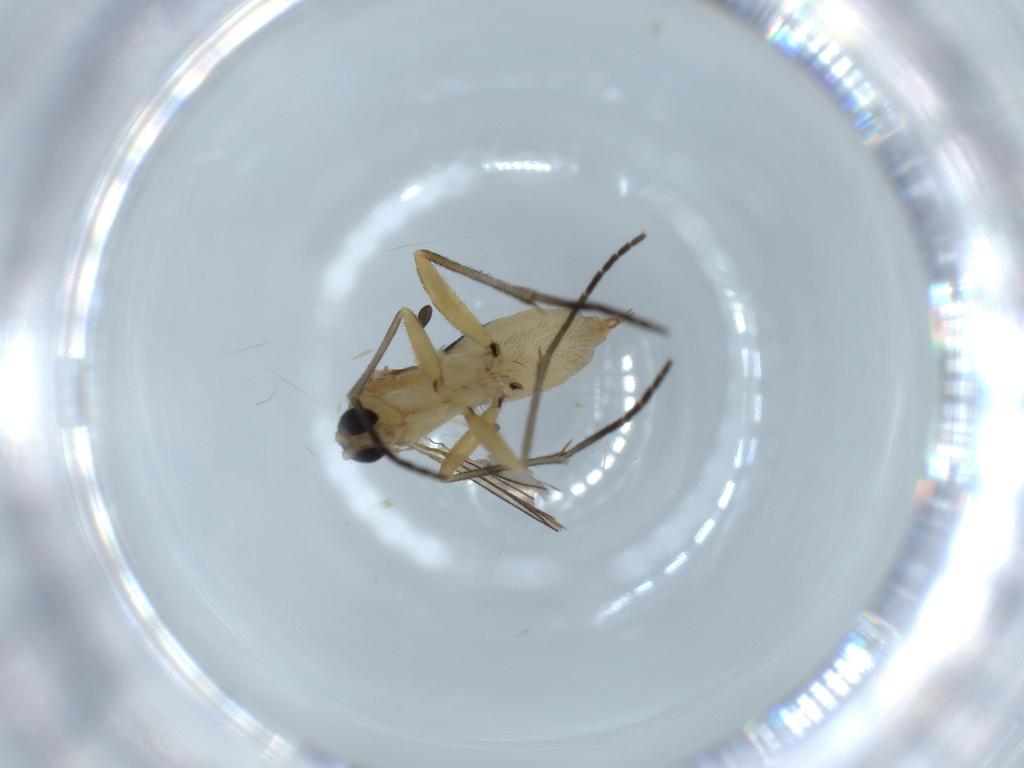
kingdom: Animalia
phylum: Arthropoda
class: Insecta
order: Diptera
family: Sciaridae
